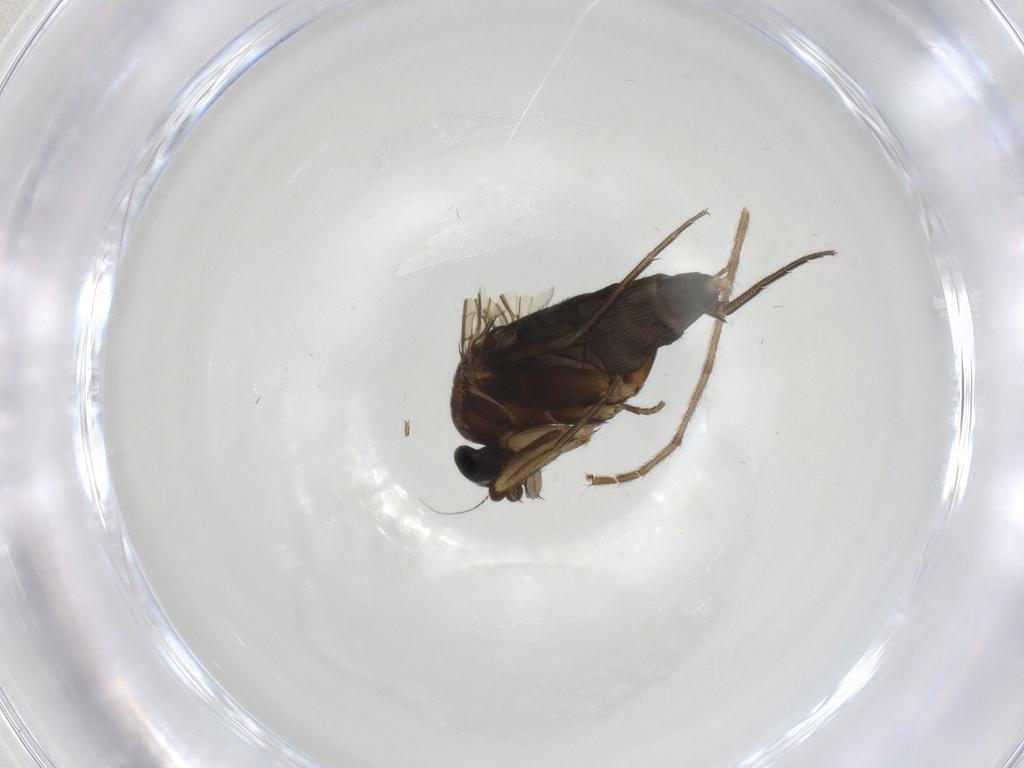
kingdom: Animalia
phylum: Arthropoda
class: Insecta
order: Diptera
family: Phoridae
